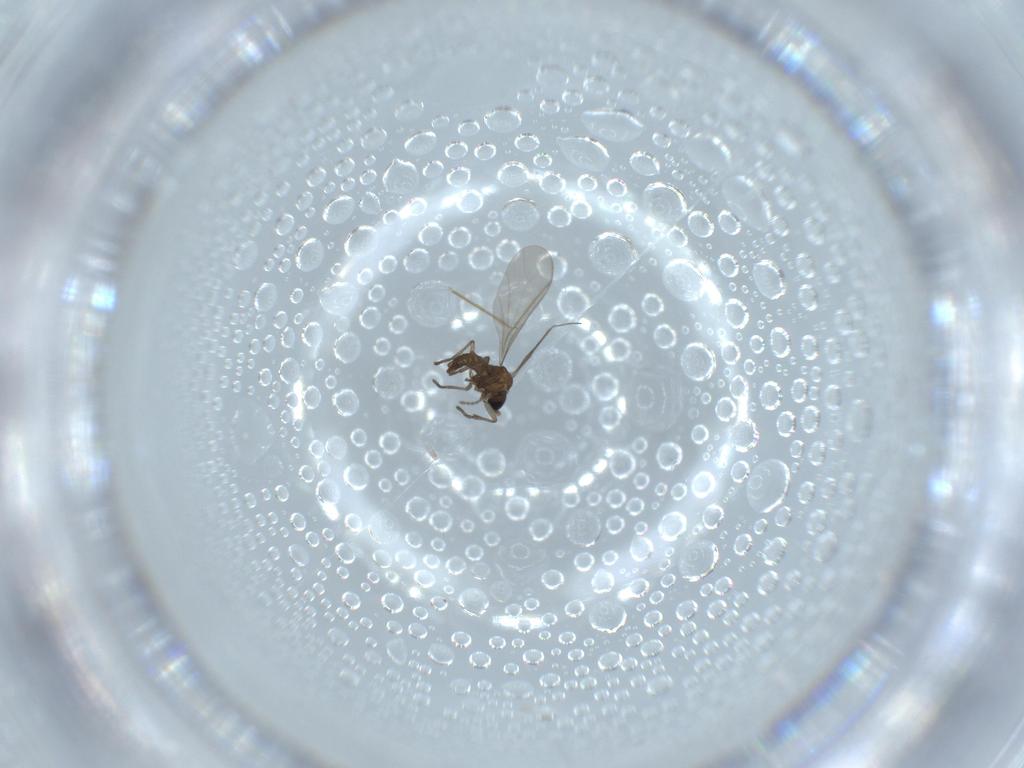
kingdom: Animalia
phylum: Arthropoda
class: Insecta
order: Diptera
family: Chironomidae
